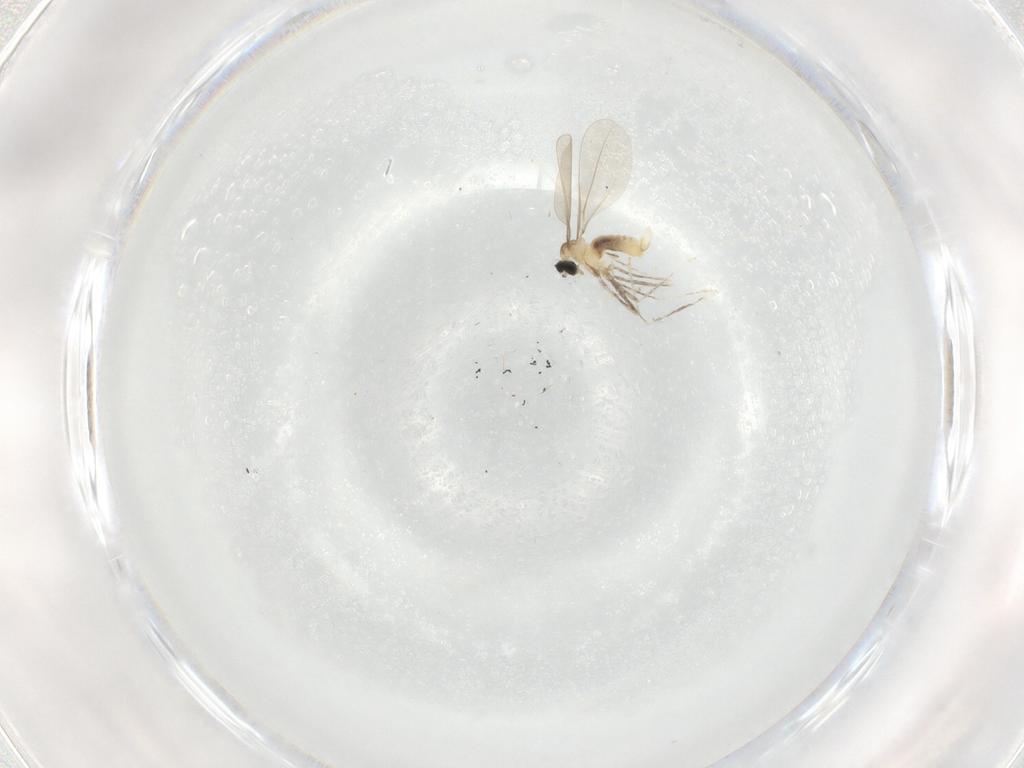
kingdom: Animalia
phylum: Arthropoda
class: Insecta
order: Diptera
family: Cecidomyiidae
